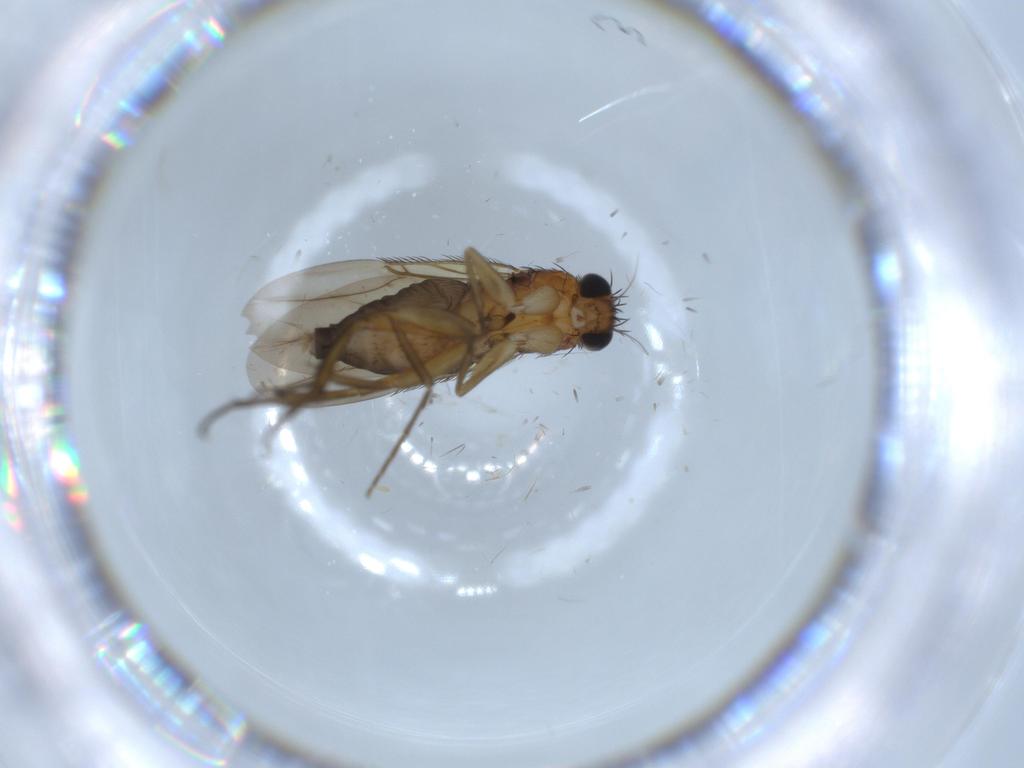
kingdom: Animalia
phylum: Arthropoda
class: Insecta
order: Diptera
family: Phoridae
